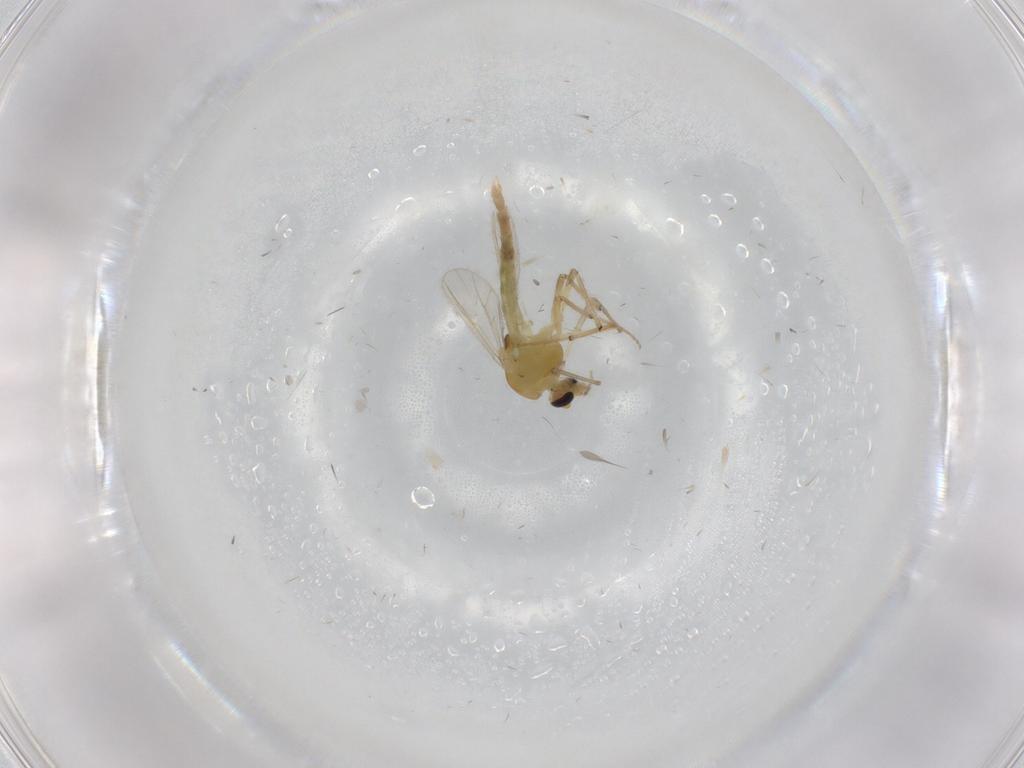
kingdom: Animalia
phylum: Arthropoda
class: Insecta
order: Diptera
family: Chironomidae
